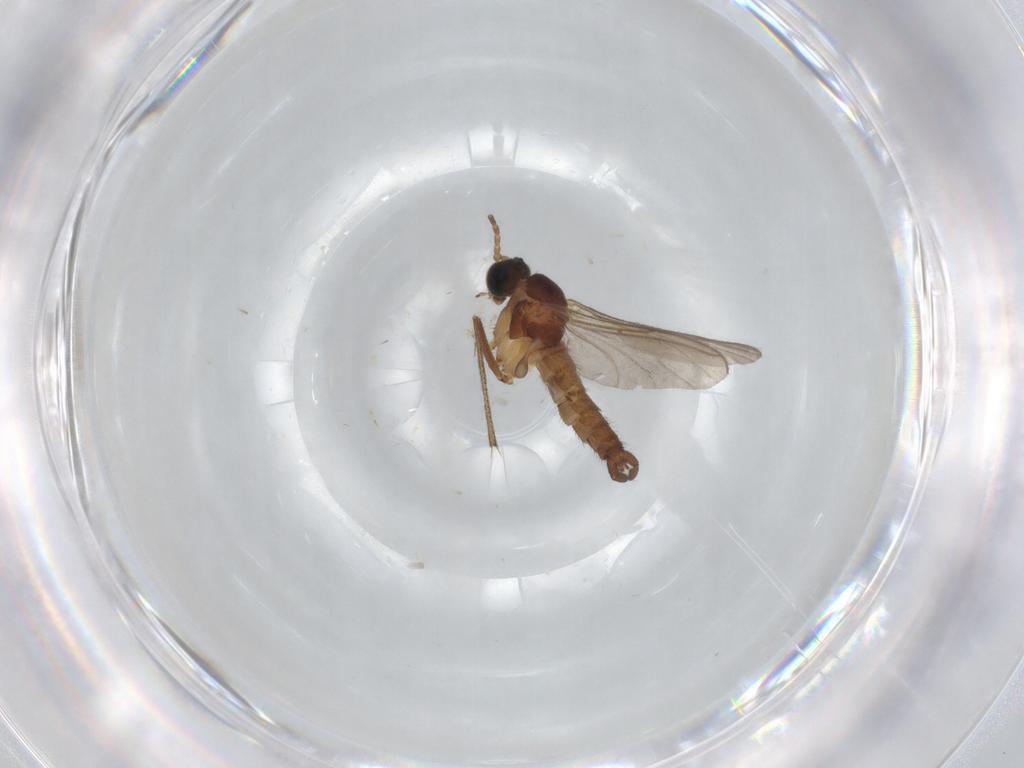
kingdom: Animalia
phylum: Arthropoda
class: Insecta
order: Diptera
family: Sciaridae
